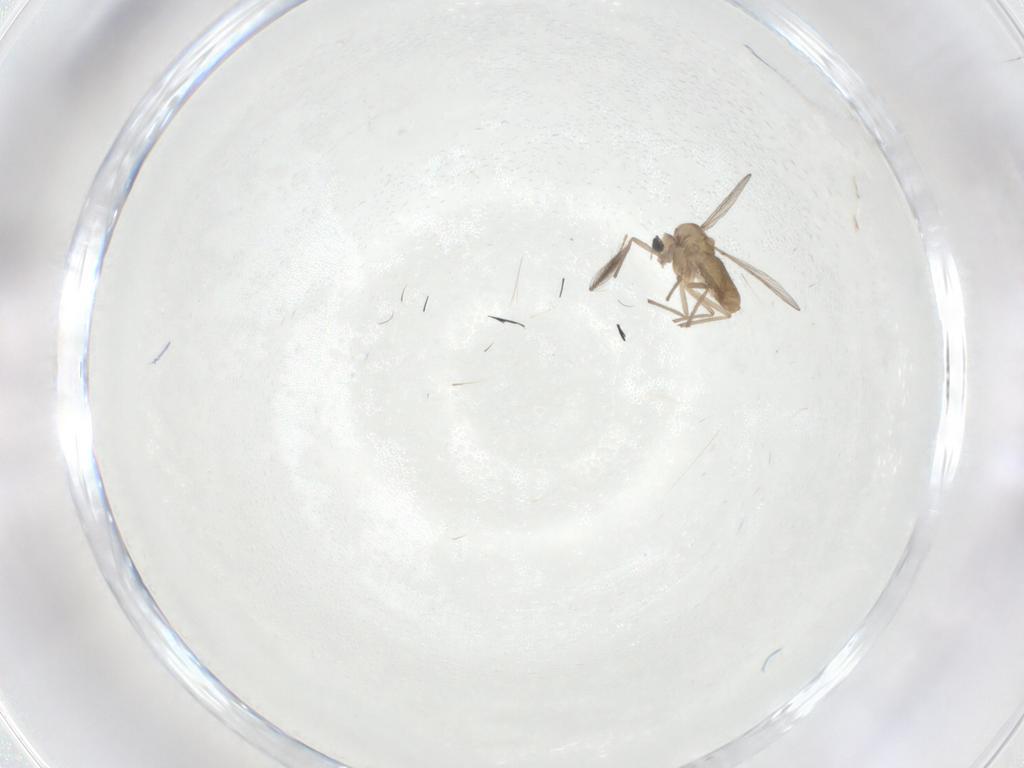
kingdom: Animalia
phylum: Arthropoda
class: Insecta
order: Diptera
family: Chironomidae
